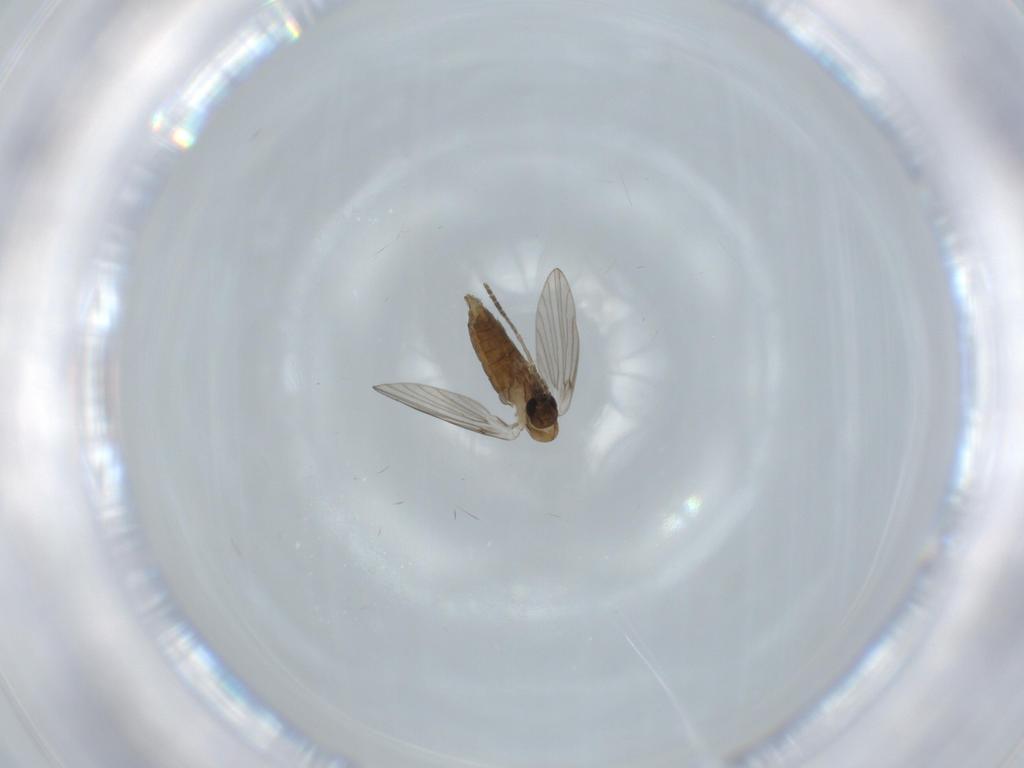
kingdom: Animalia
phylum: Arthropoda
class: Insecta
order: Diptera
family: Psychodidae
